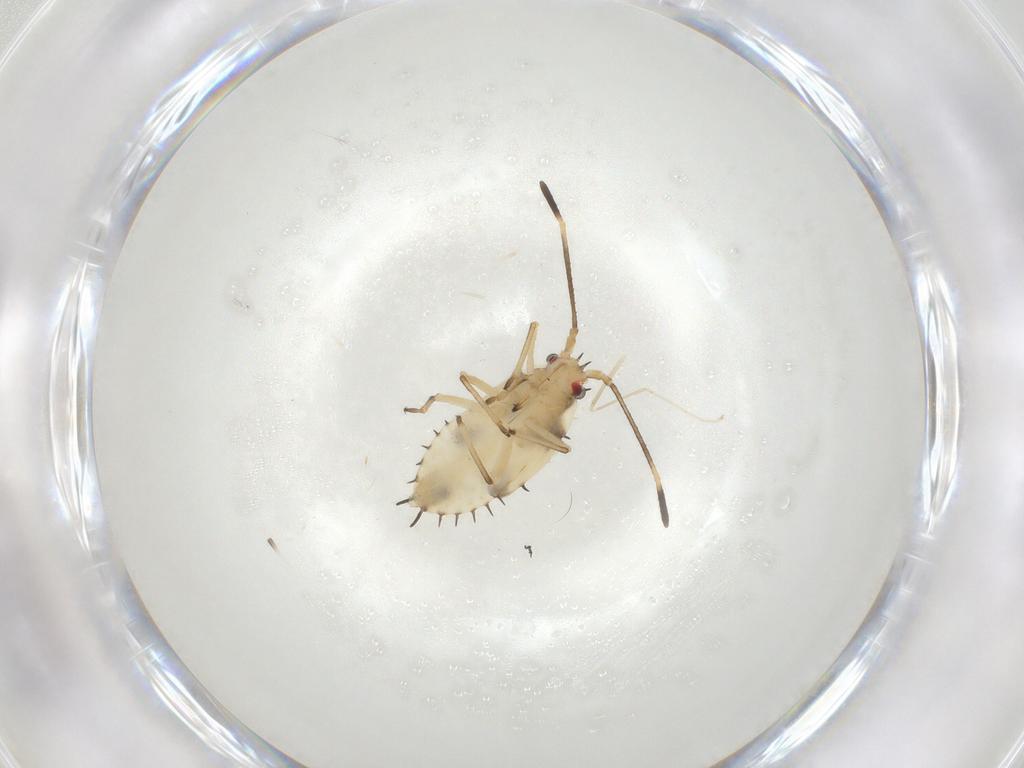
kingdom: Animalia
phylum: Arthropoda
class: Insecta
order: Hemiptera
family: Tingidae
